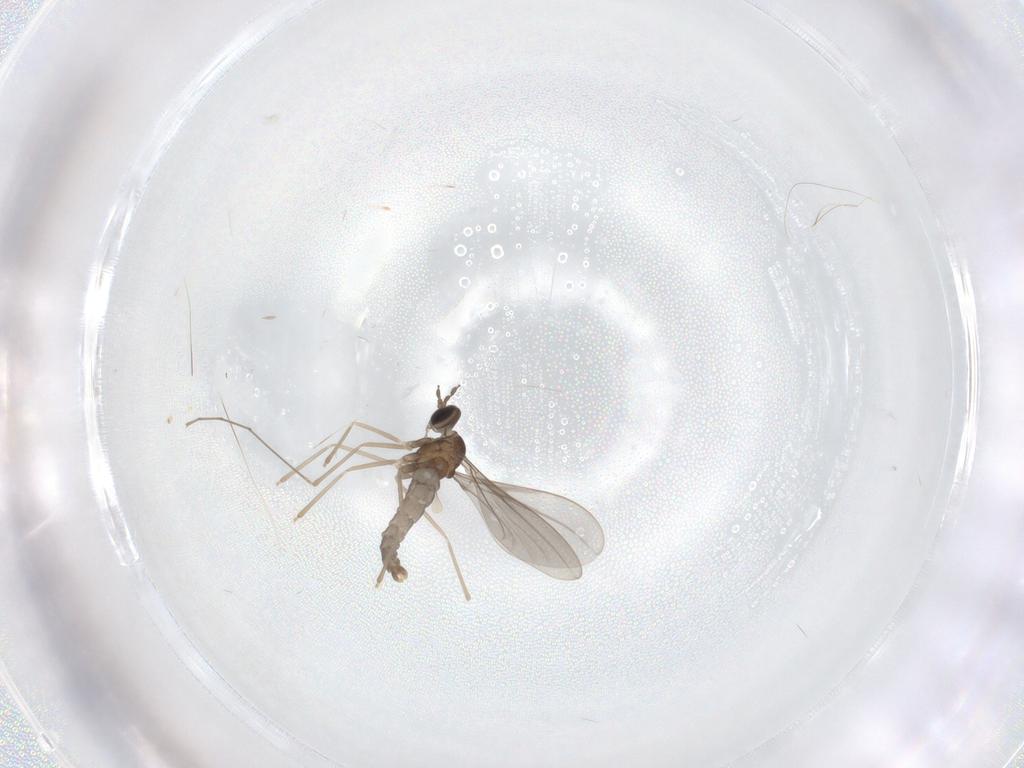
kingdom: Animalia
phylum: Arthropoda
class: Insecta
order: Diptera
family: Cecidomyiidae
